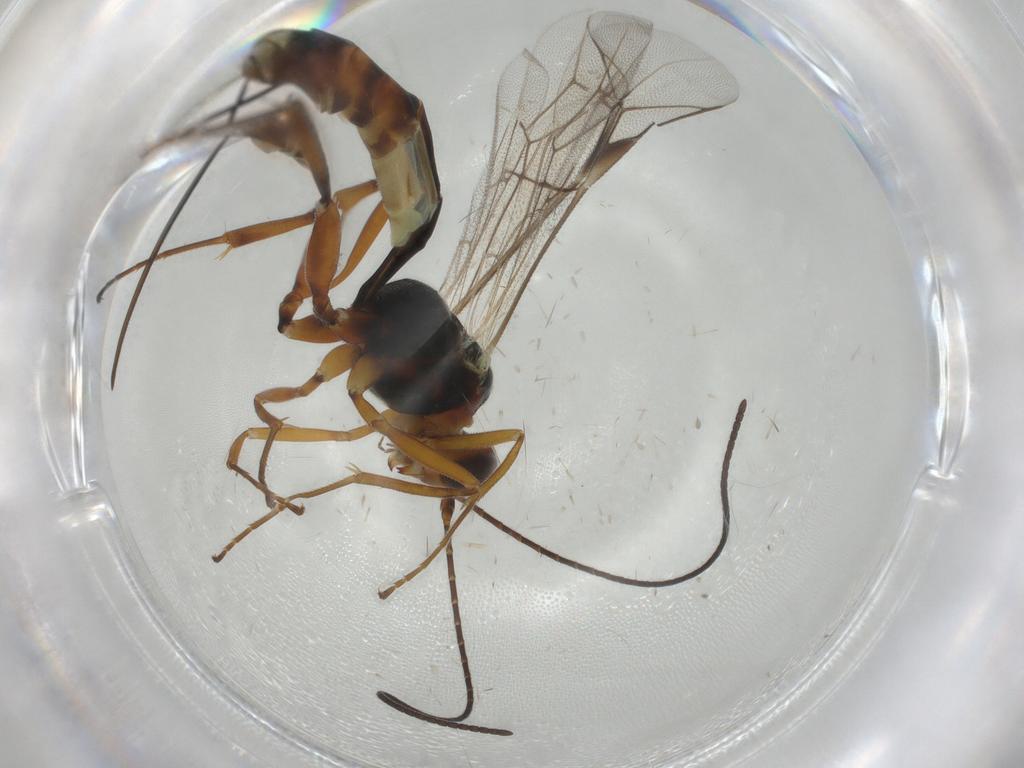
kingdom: Animalia
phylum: Arthropoda
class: Insecta
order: Hymenoptera
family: Ichneumonidae
